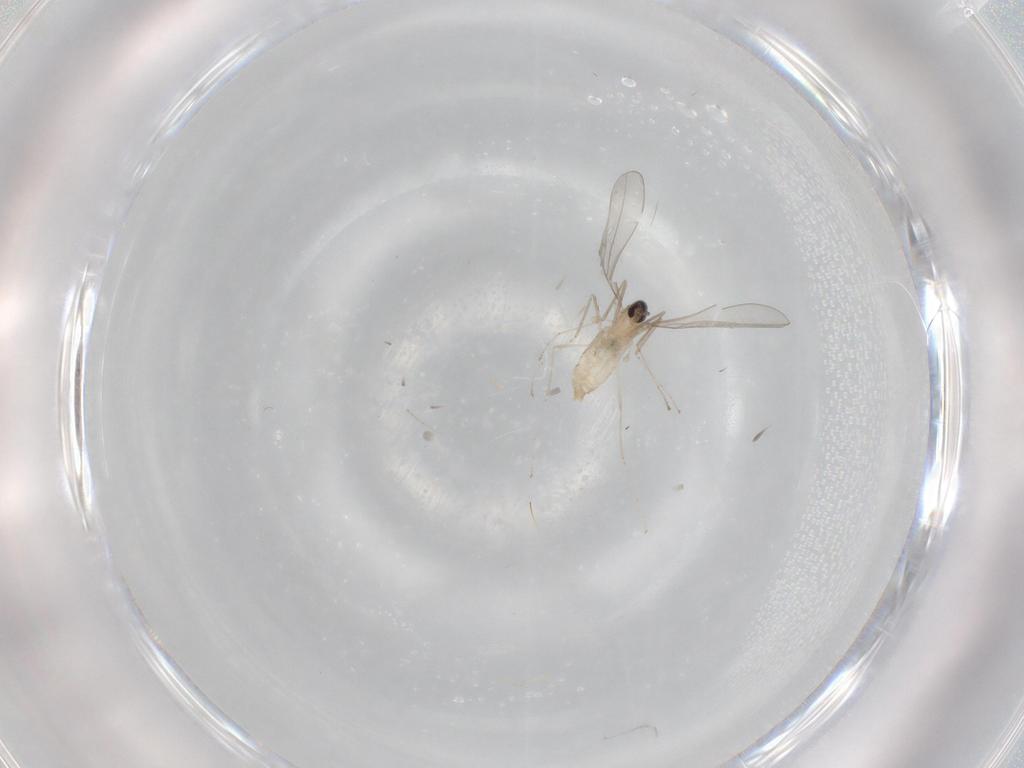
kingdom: Animalia
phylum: Arthropoda
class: Insecta
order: Diptera
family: Cecidomyiidae
